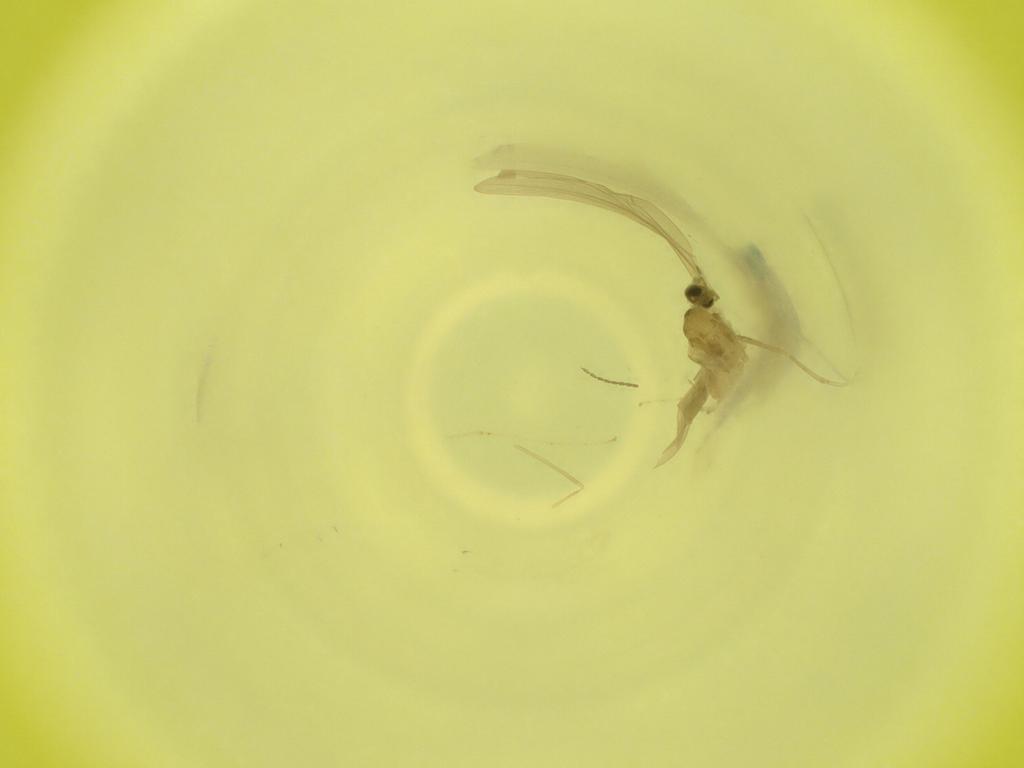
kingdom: Animalia
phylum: Arthropoda
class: Insecta
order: Diptera
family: Cecidomyiidae
